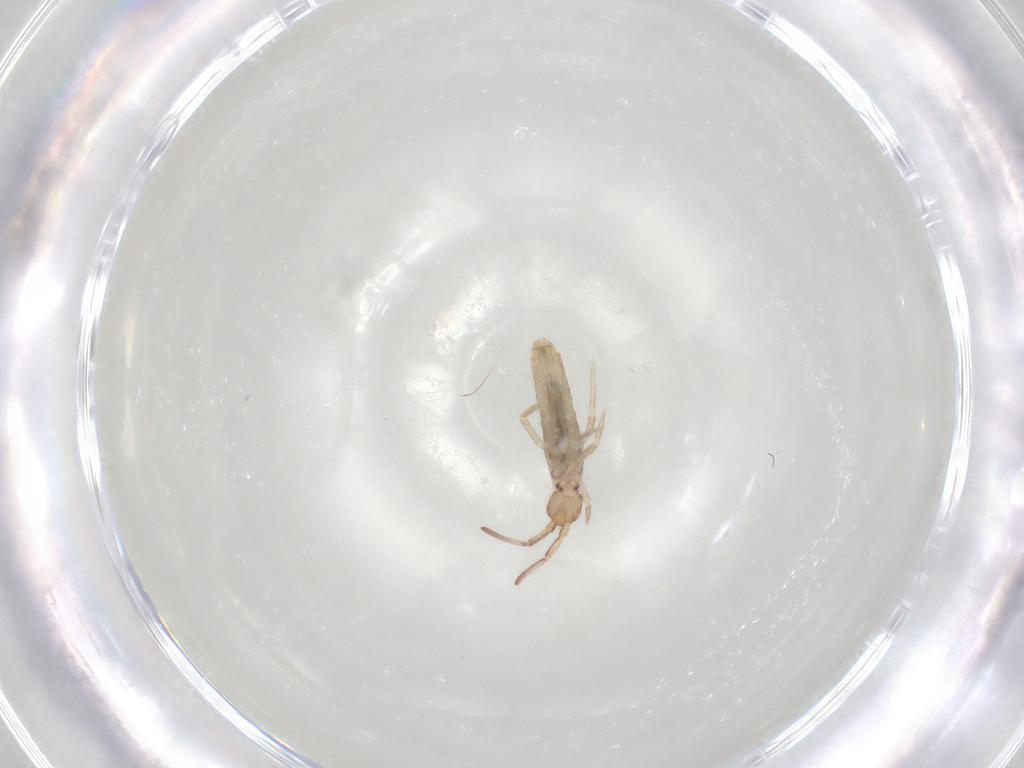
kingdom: Animalia
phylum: Arthropoda
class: Collembola
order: Entomobryomorpha
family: Entomobryidae
